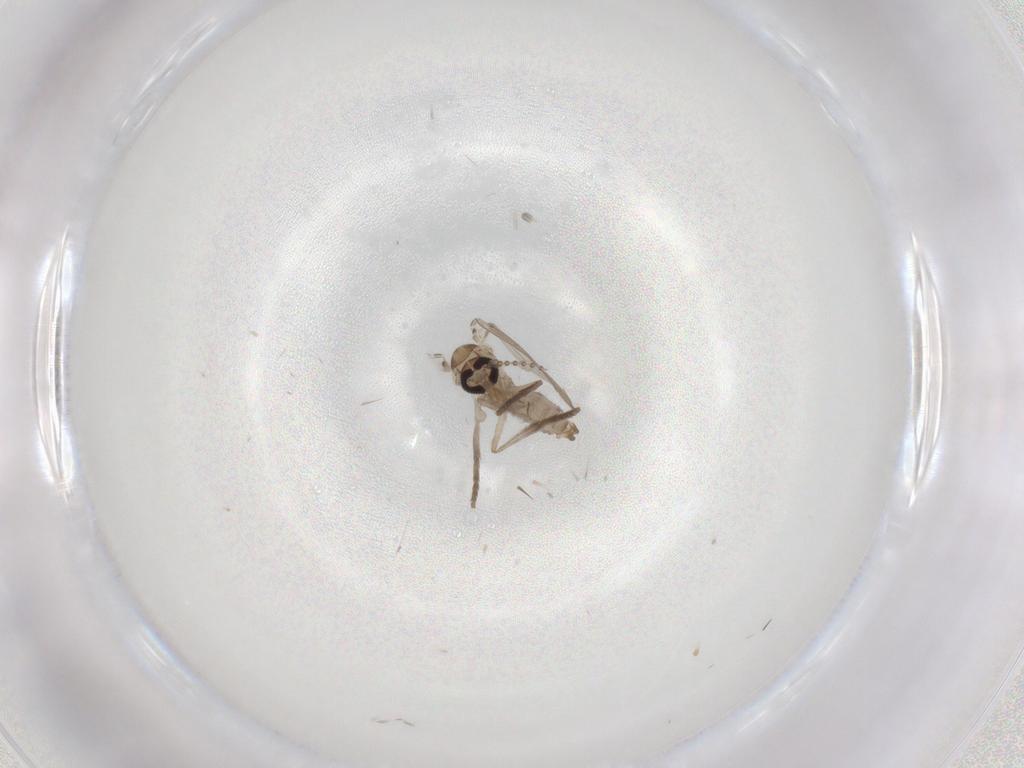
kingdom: Animalia
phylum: Arthropoda
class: Insecta
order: Diptera
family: Psychodidae
